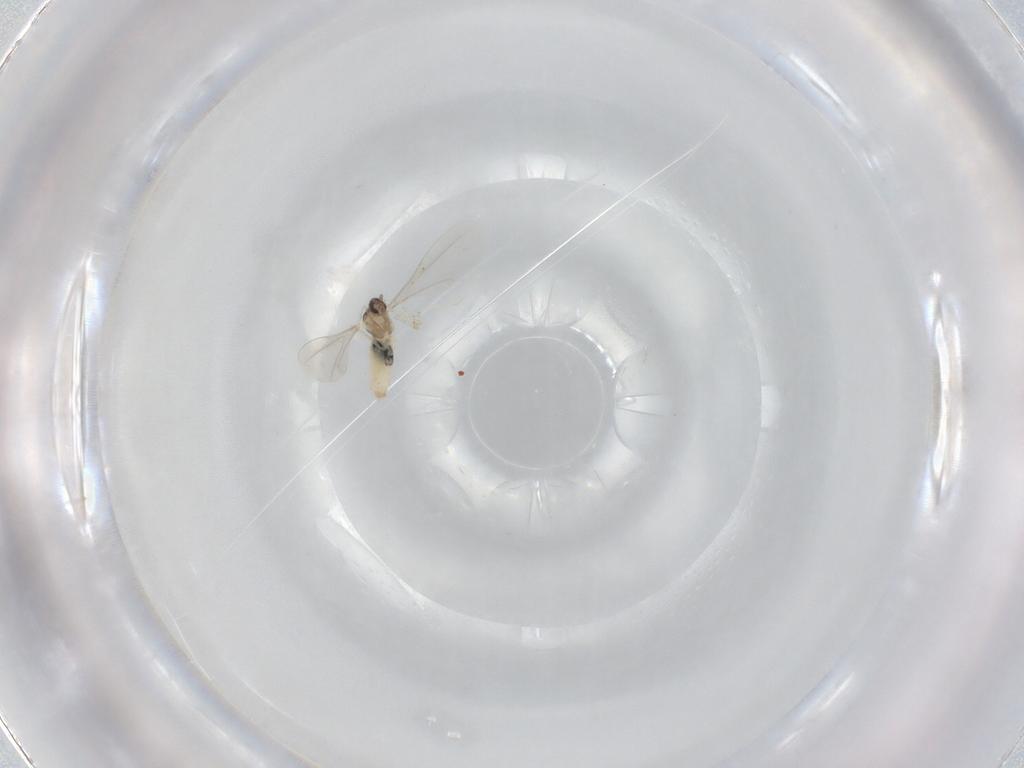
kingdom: Animalia
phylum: Arthropoda
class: Insecta
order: Diptera
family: Cecidomyiidae
